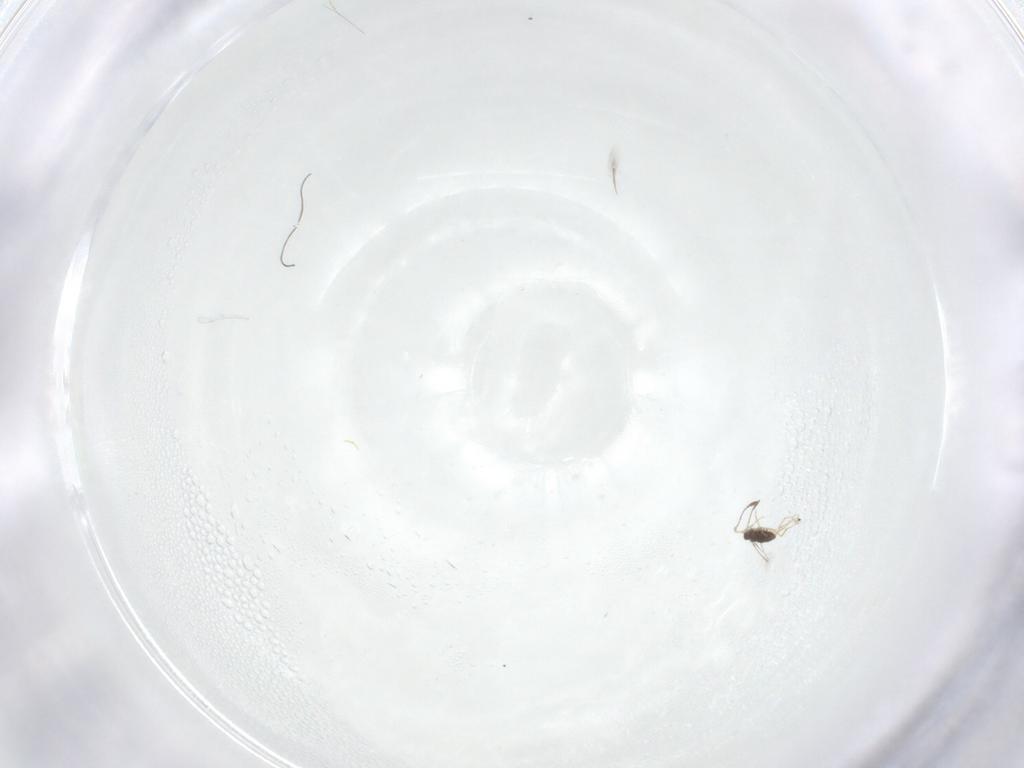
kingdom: Animalia
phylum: Arthropoda
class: Insecta
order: Hymenoptera
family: Mymaridae
